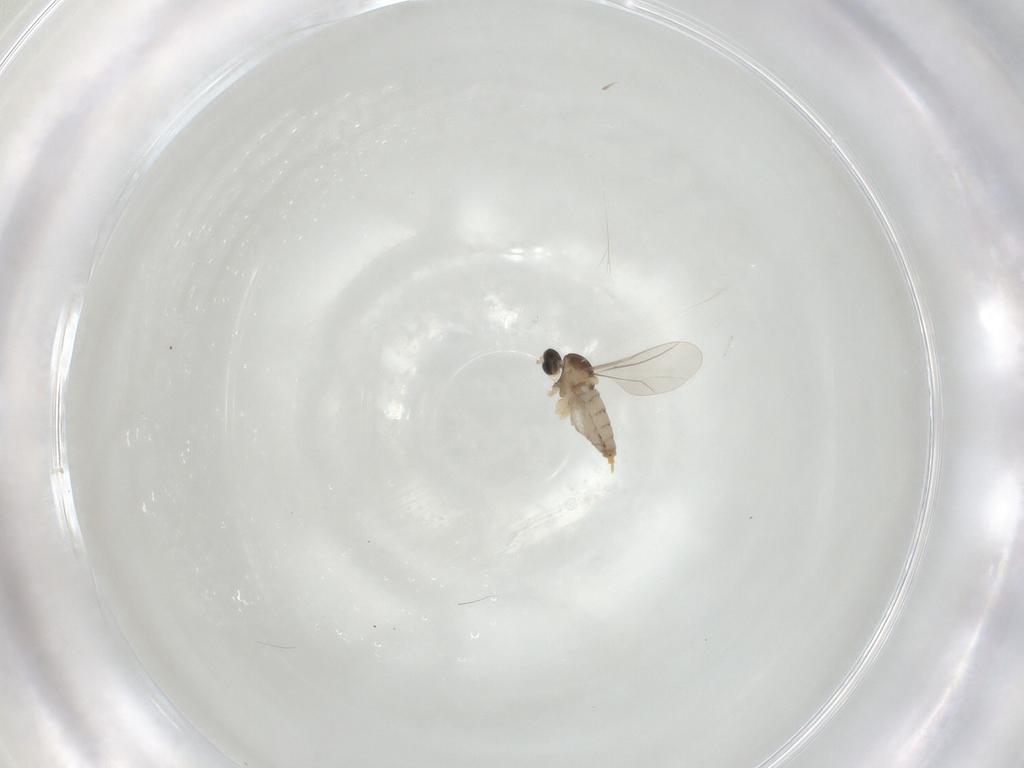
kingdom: Animalia
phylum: Arthropoda
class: Insecta
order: Diptera
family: Cecidomyiidae
